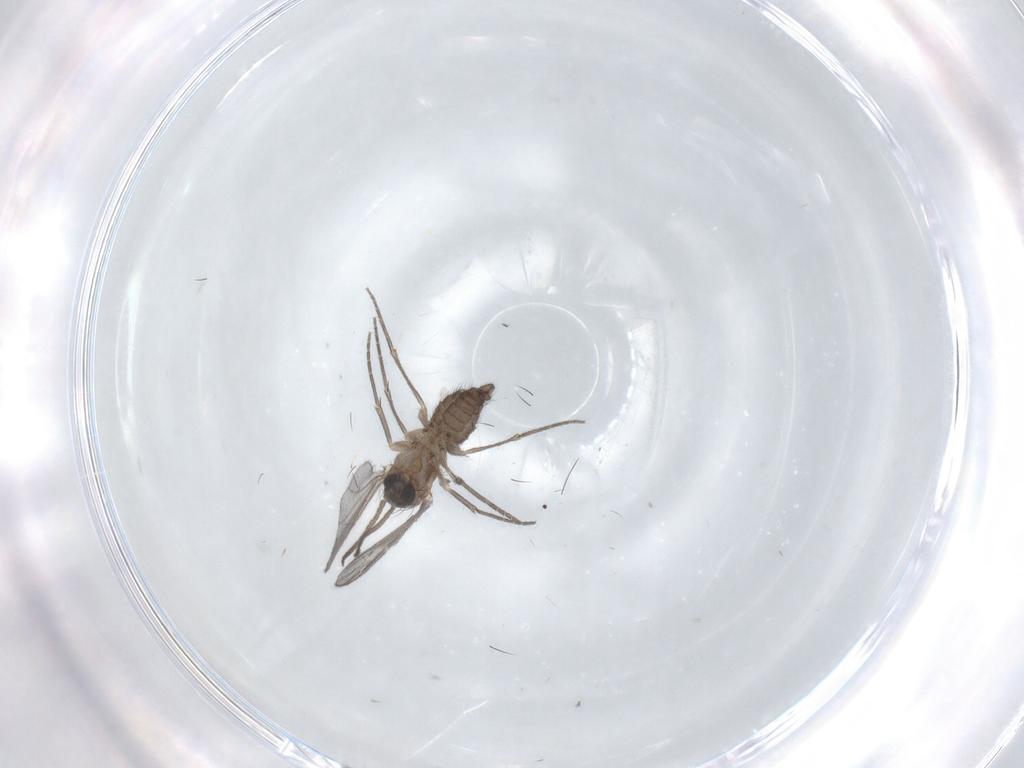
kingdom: Animalia
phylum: Arthropoda
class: Insecta
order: Diptera
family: Sciaridae
